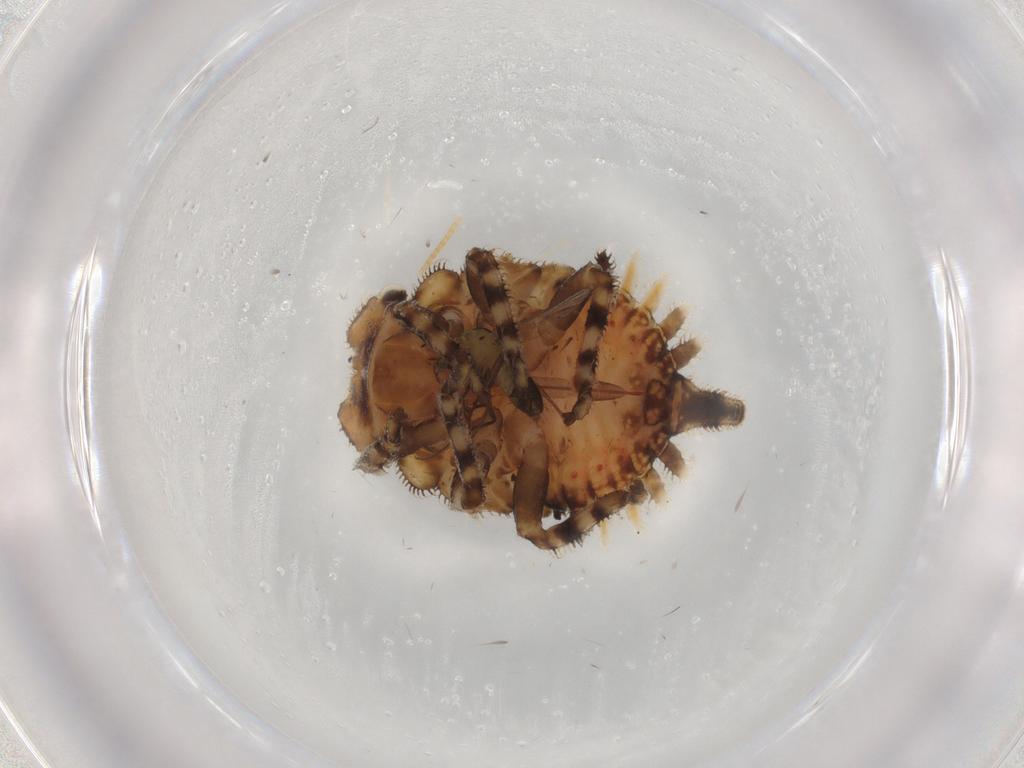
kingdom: Animalia
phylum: Arthropoda
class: Insecta
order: Hemiptera
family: Membracidae
